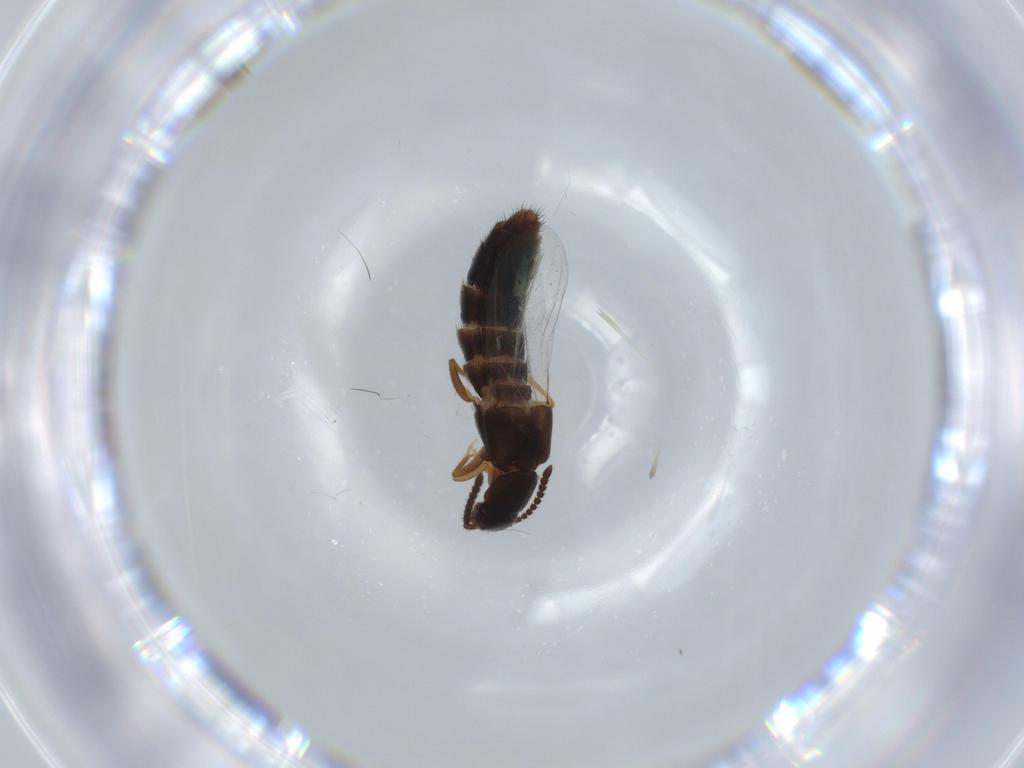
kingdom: Animalia
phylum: Arthropoda
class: Insecta
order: Coleoptera
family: Staphylinidae
